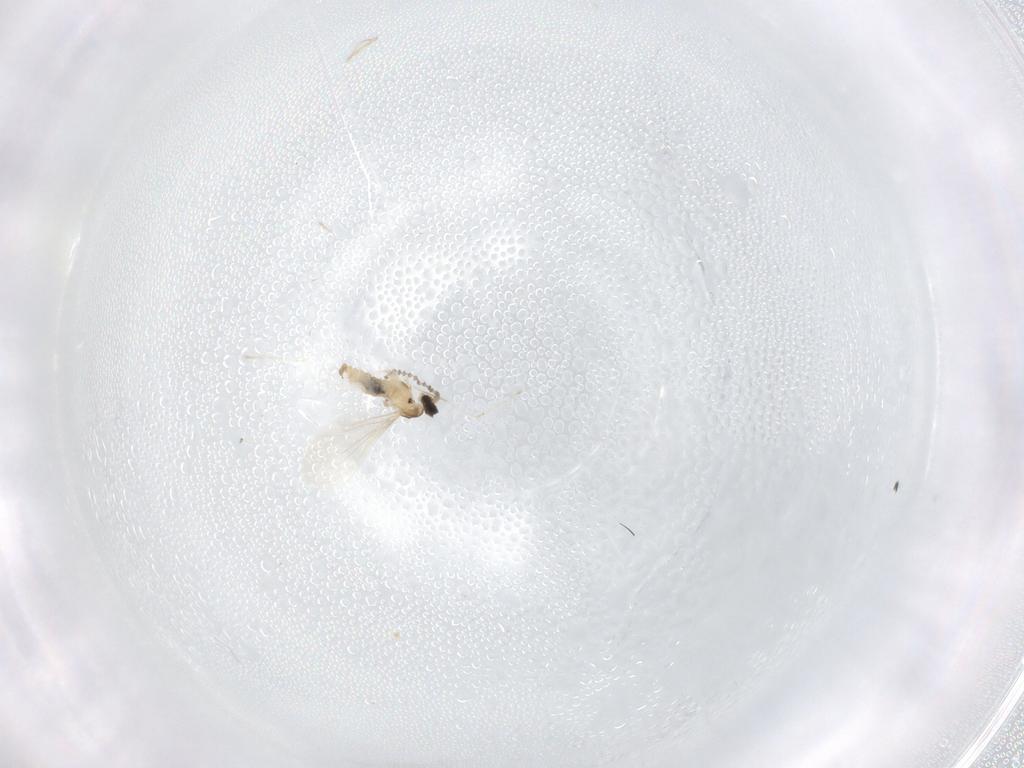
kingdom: Animalia
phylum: Arthropoda
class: Insecta
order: Diptera
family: Cecidomyiidae
